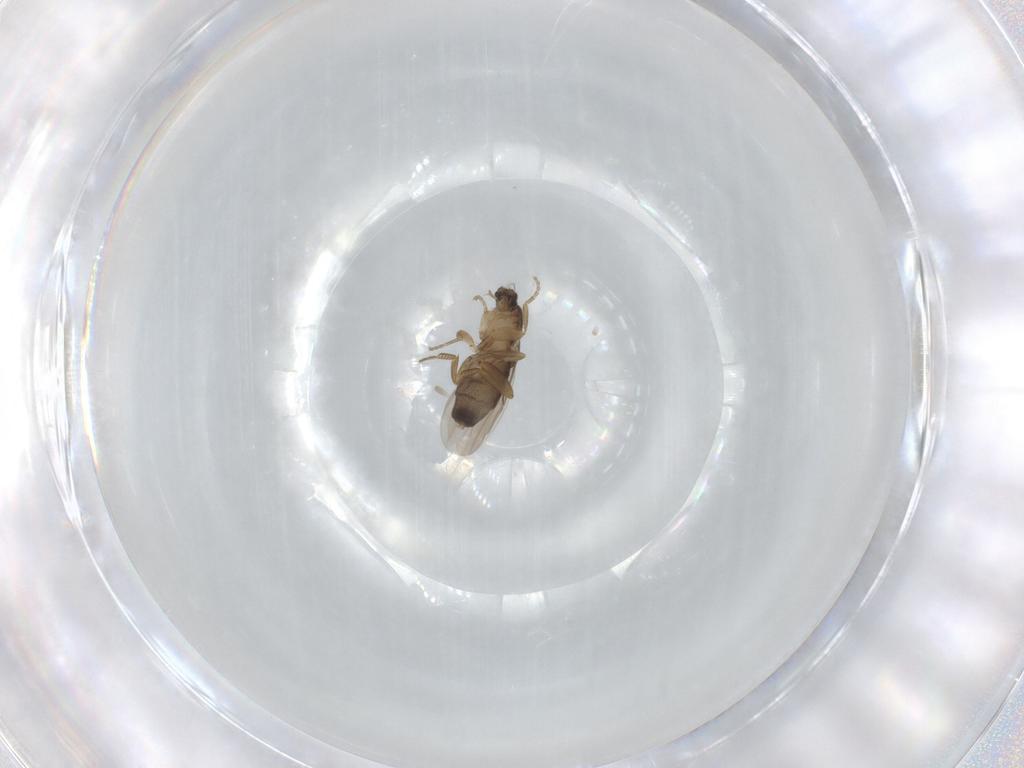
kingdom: Animalia
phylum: Arthropoda
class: Insecta
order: Diptera
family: Phoridae
